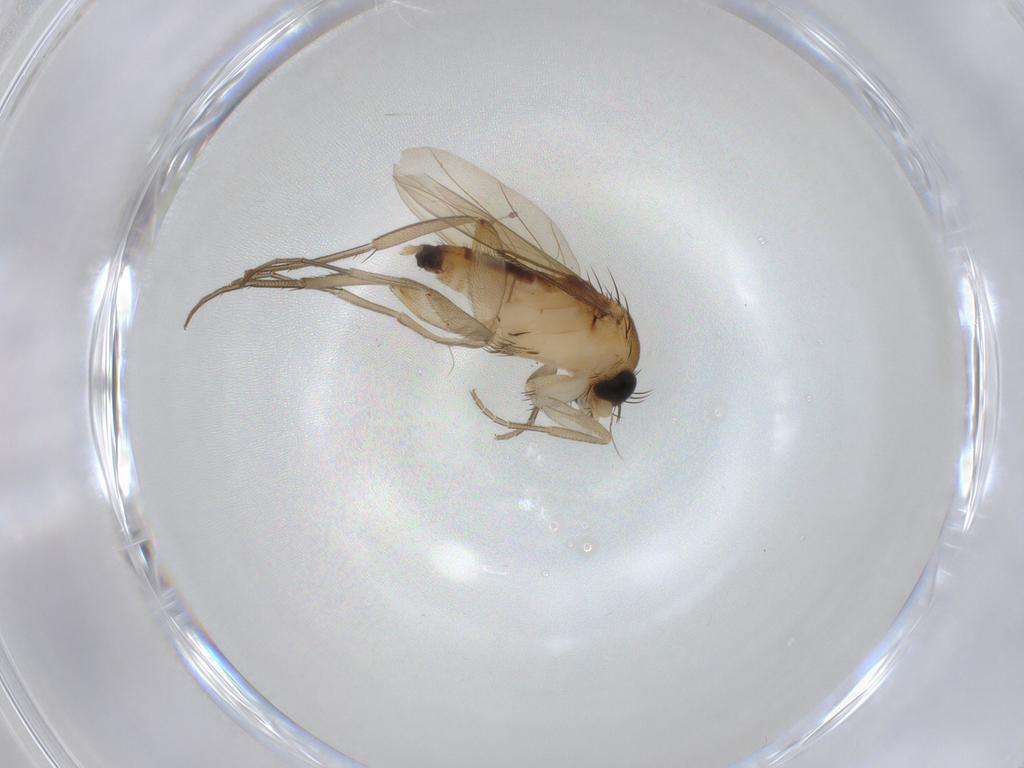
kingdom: Animalia
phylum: Arthropoda
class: Insecta
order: Diptera
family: Phoridae
